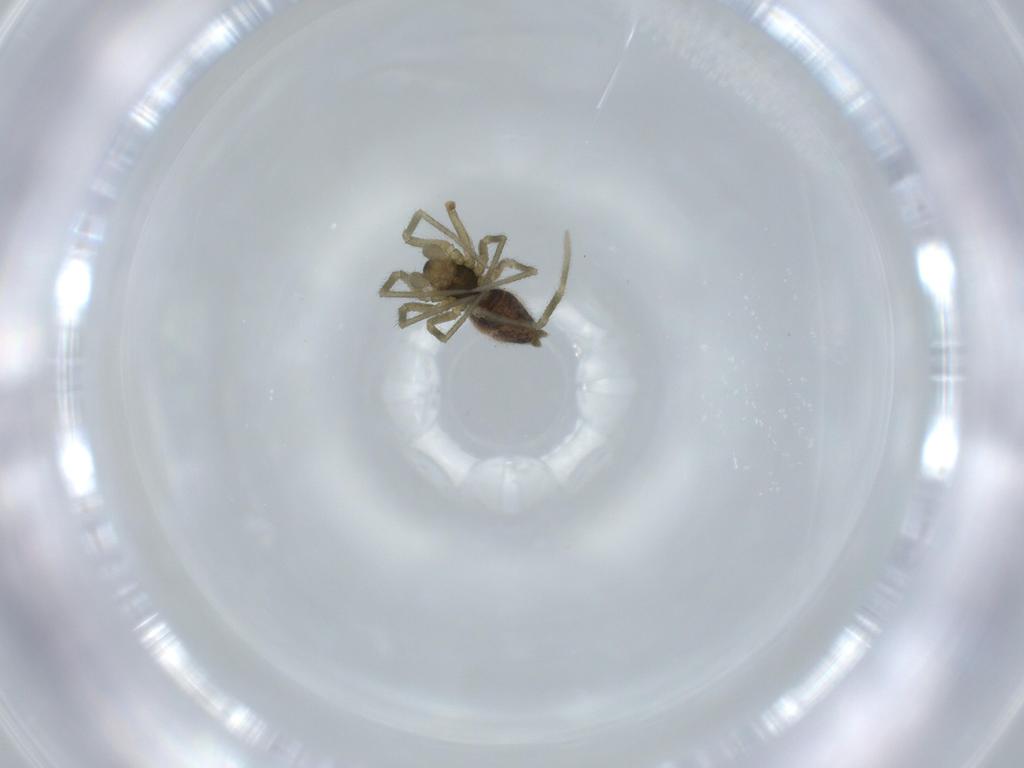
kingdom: Animalia
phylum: Arthropoda
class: Arachnida
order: Araneae
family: Linyphiidae
